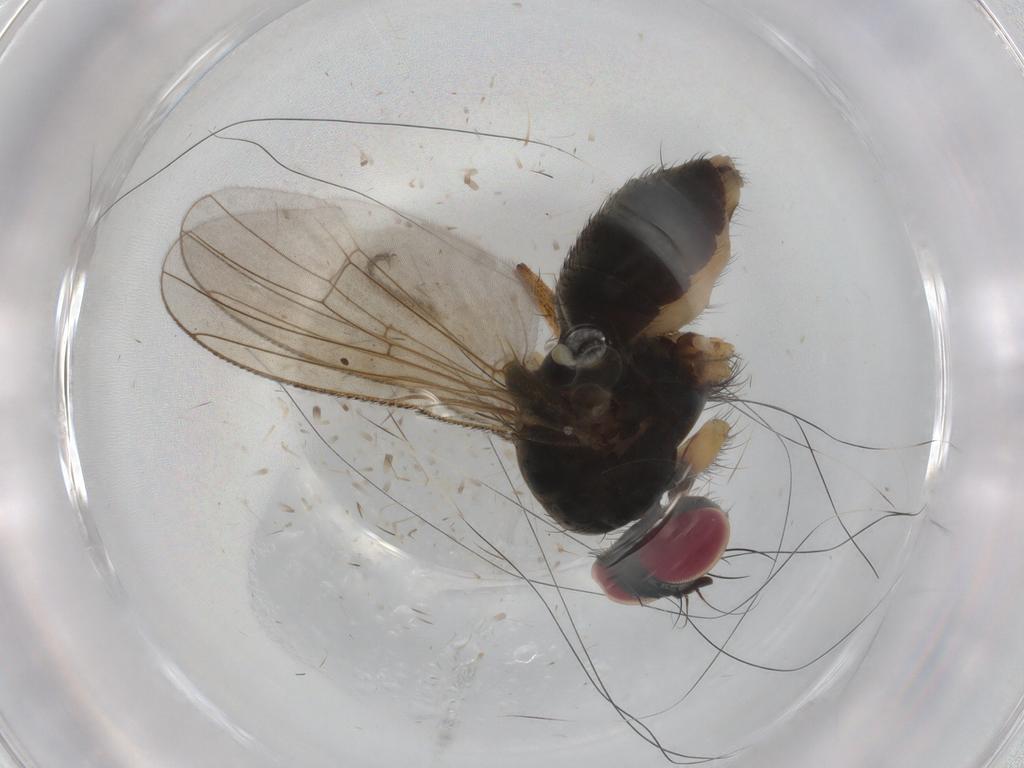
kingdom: Animalia
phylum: Arthropoda
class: Insecta
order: Diptera
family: Muscidae
